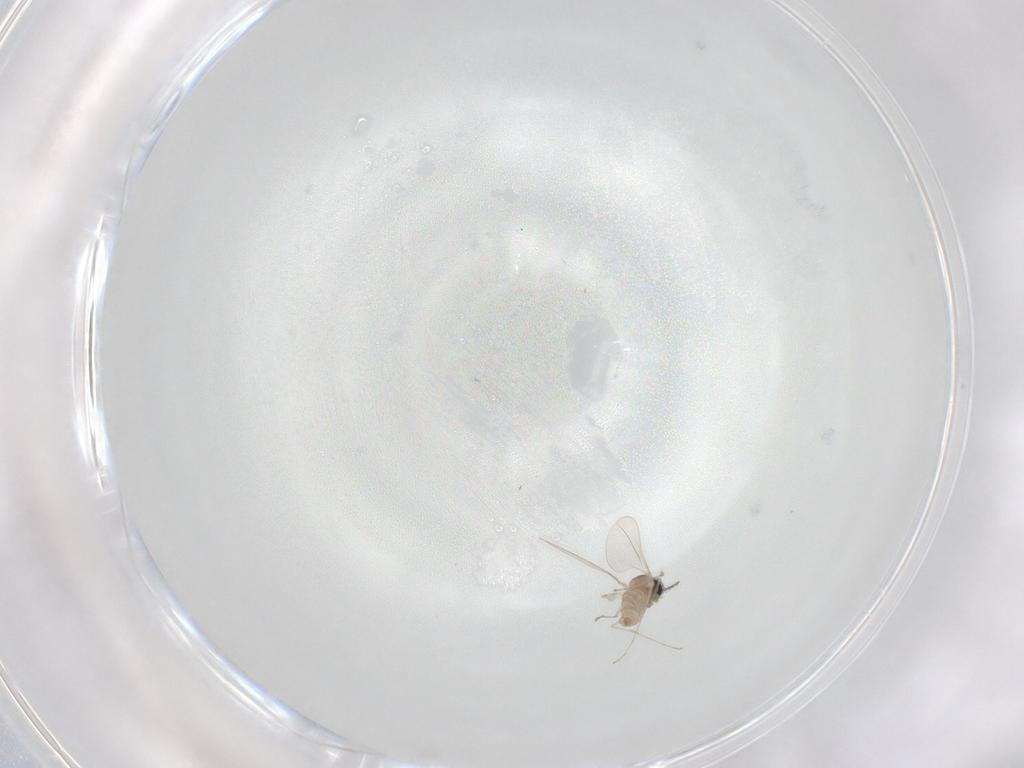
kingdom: Animalia
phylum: Arthropoda
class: Insecta
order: Diptera
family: Cecidomyiidae
